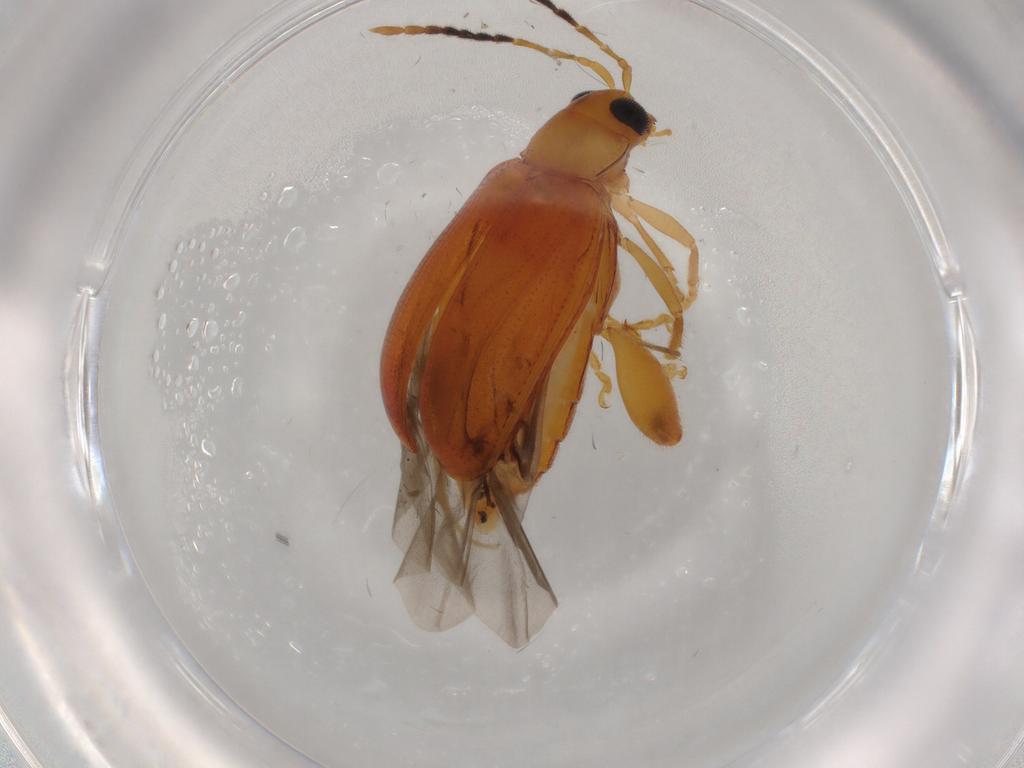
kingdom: Animalia
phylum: Arthropoda
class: Insecta
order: Coleoptera
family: Chrysomelidae
